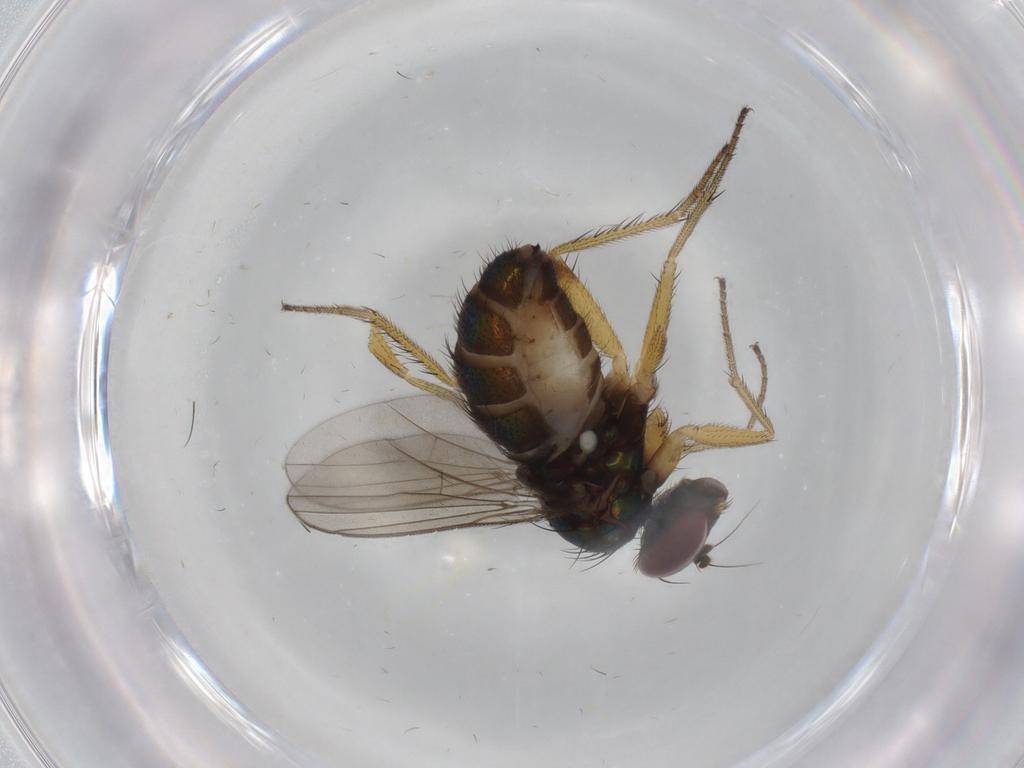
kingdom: Animalia
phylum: Arthropoda
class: Insecta
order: Diptera
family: Dolichopodidae
